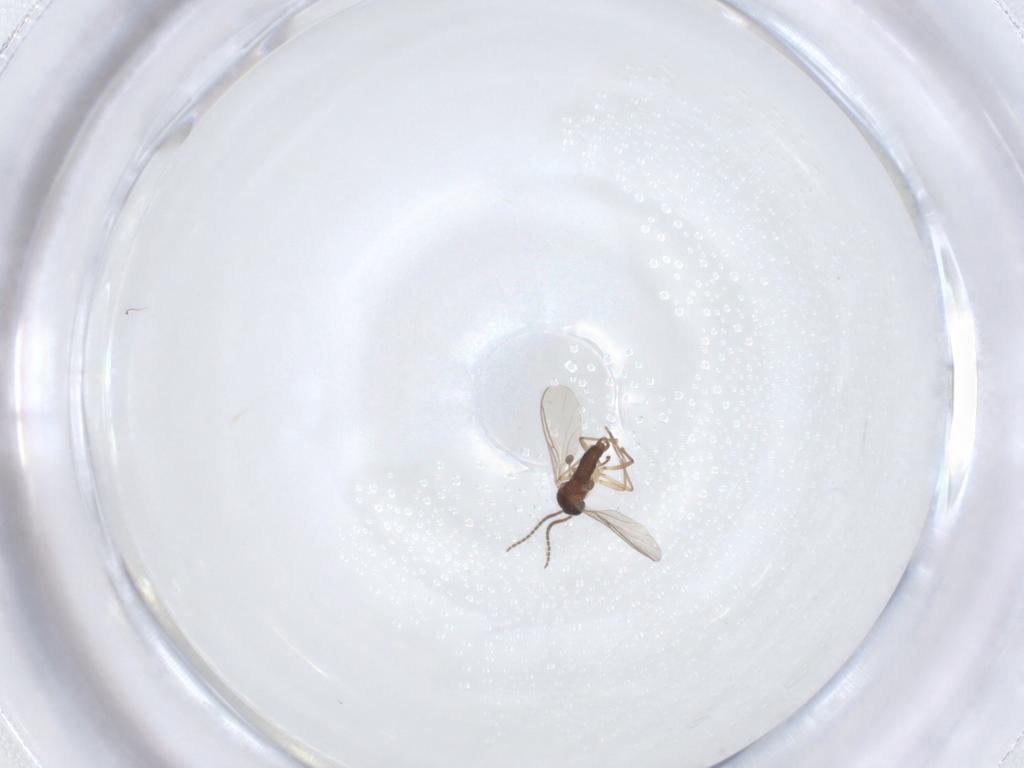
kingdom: Animalia
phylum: Arthropoda
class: Insecta
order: Diptera
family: Sciaridae
